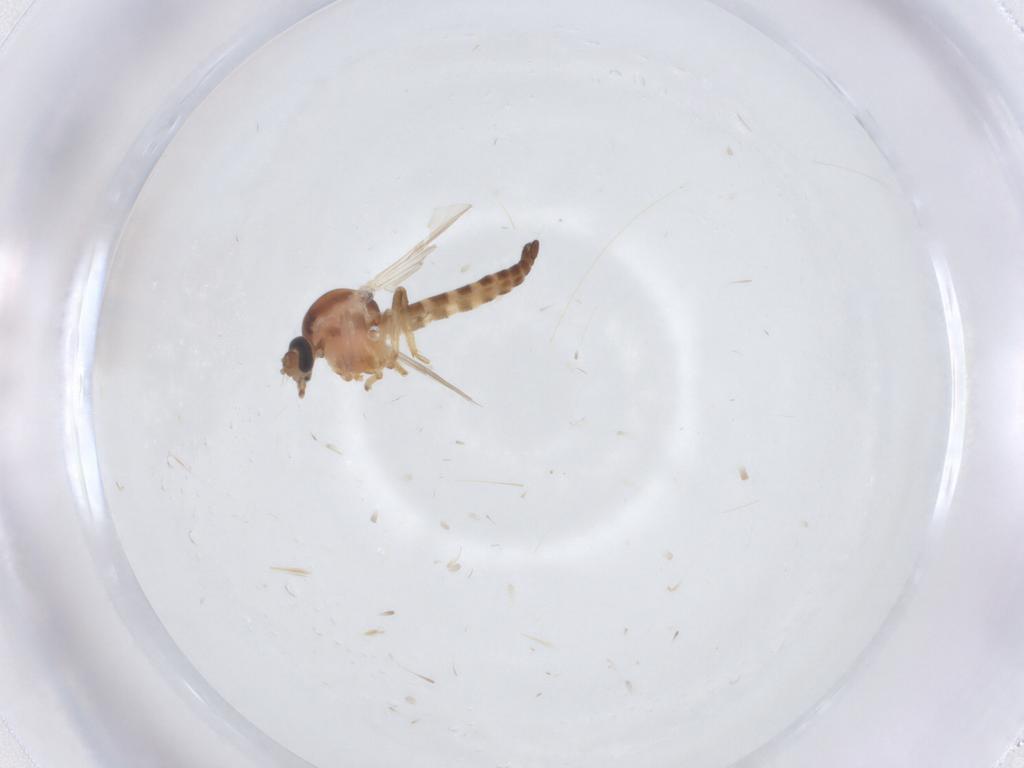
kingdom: Animalia
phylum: Arthropoda
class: Insecta
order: Diptera
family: Ceratopogonidae
